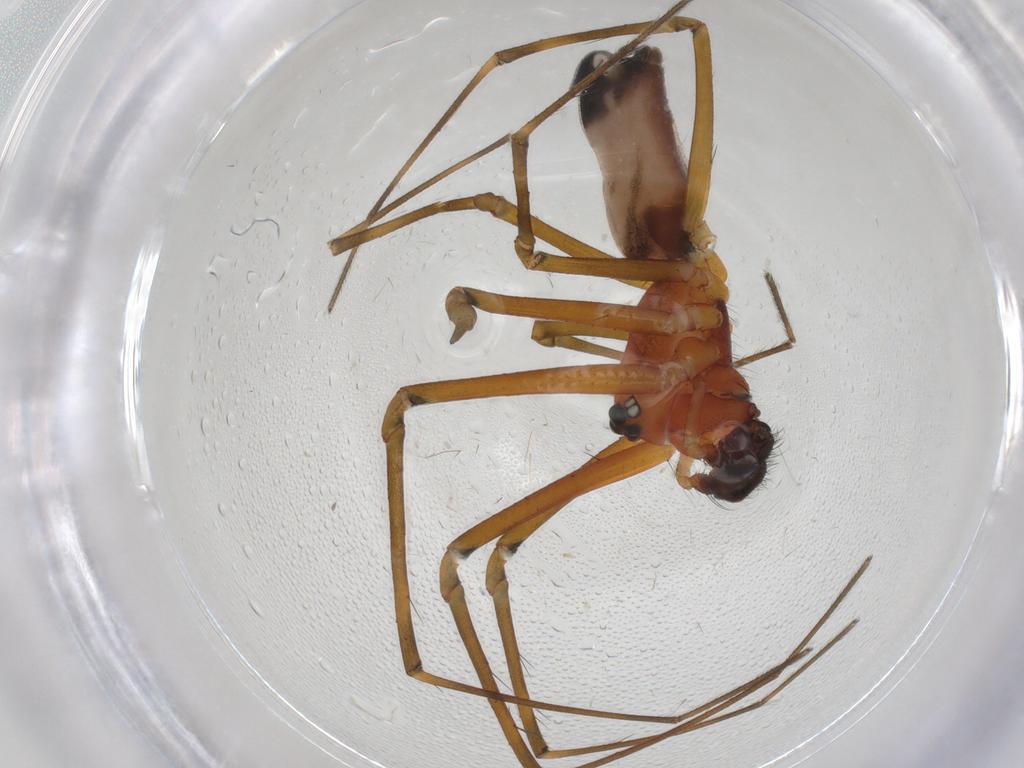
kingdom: Animalia
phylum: Arthropoda
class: Arachnida
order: Araneae
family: Linyphiidae
